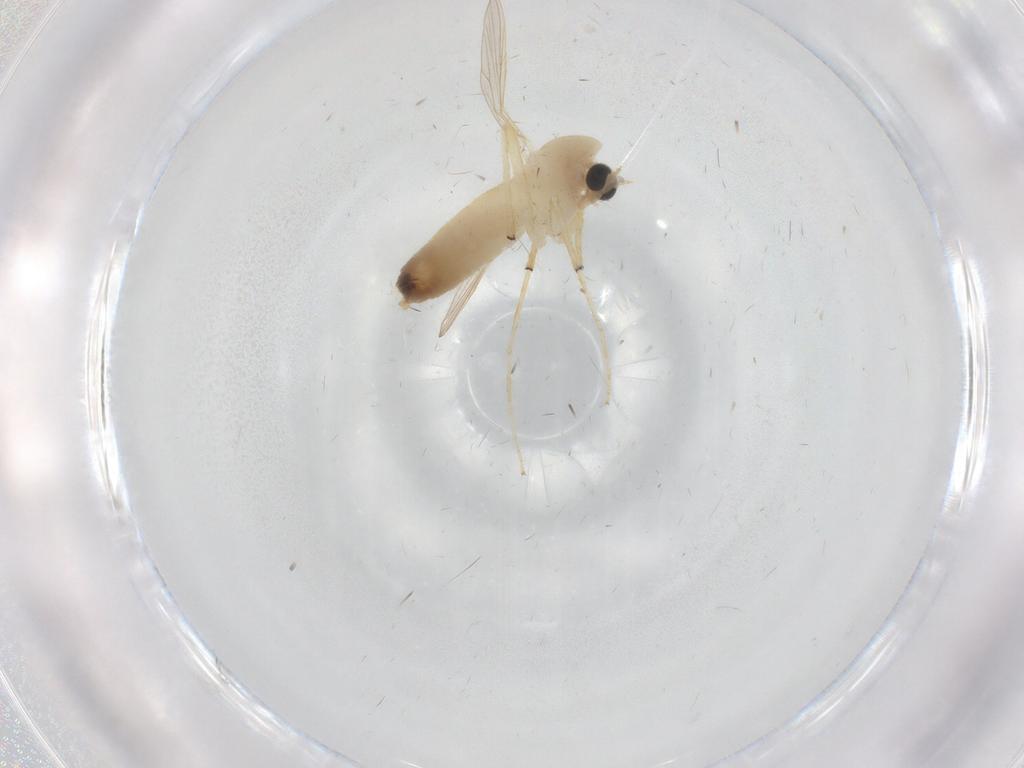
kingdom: Animalia
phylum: Arthropoda
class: Insecta
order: Diptera
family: Chironomidae
